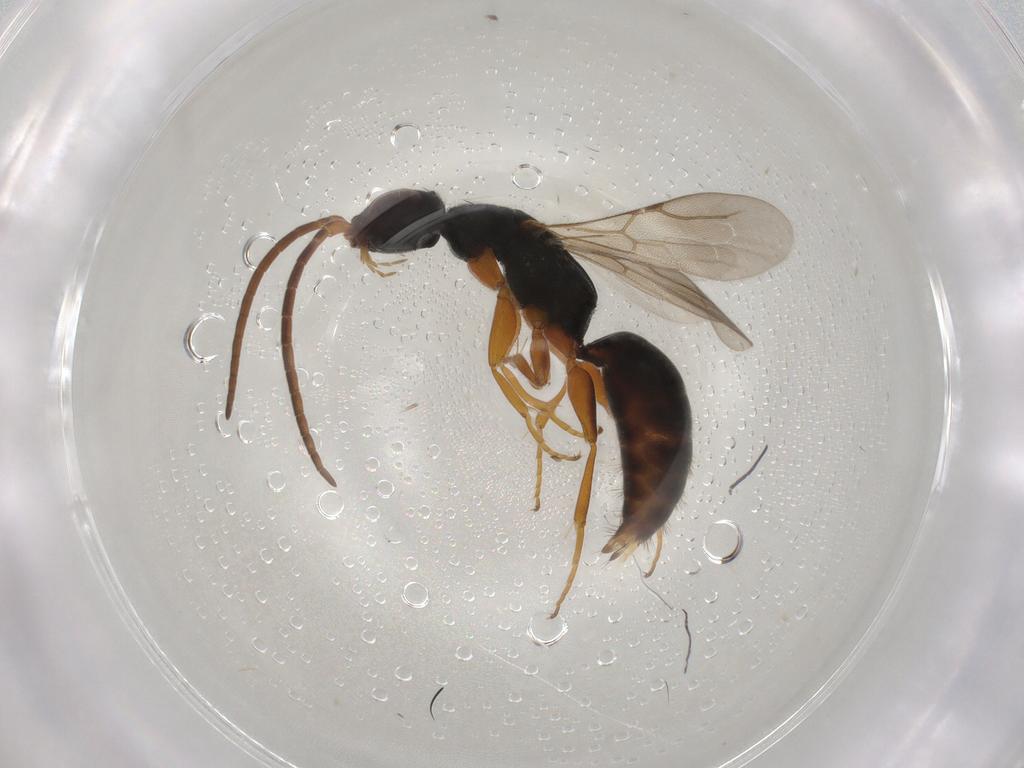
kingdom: Animalia
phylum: Arthropoda
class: Insecta
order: Hymenoptera
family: Bethylidae
